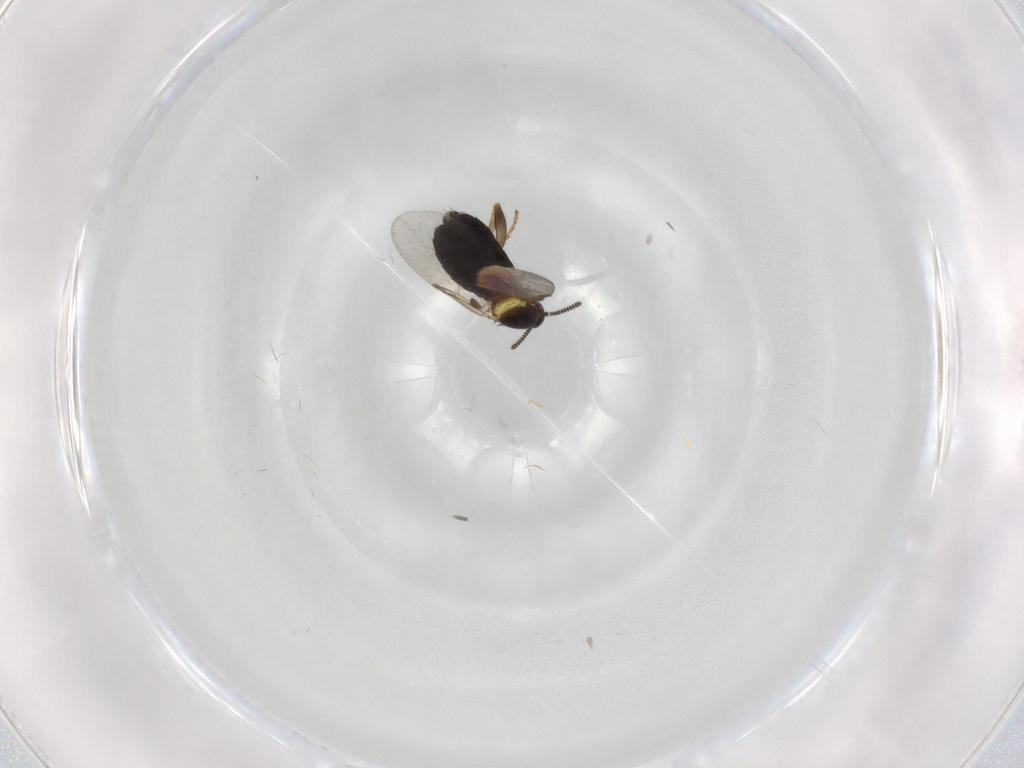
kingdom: Animalia
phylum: Arthropoda
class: Insecta
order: Diptera
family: Scatopsidae
